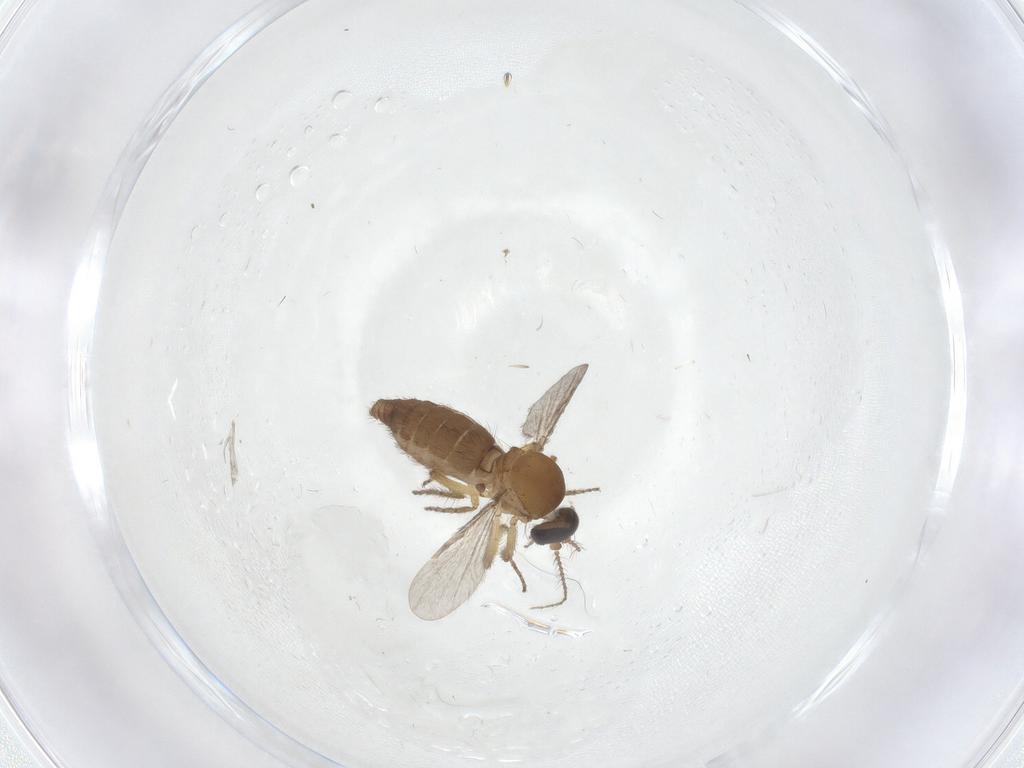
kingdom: Animalia
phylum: Arthropoda
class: Insecta
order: Diptera
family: Ceratopogonidae
